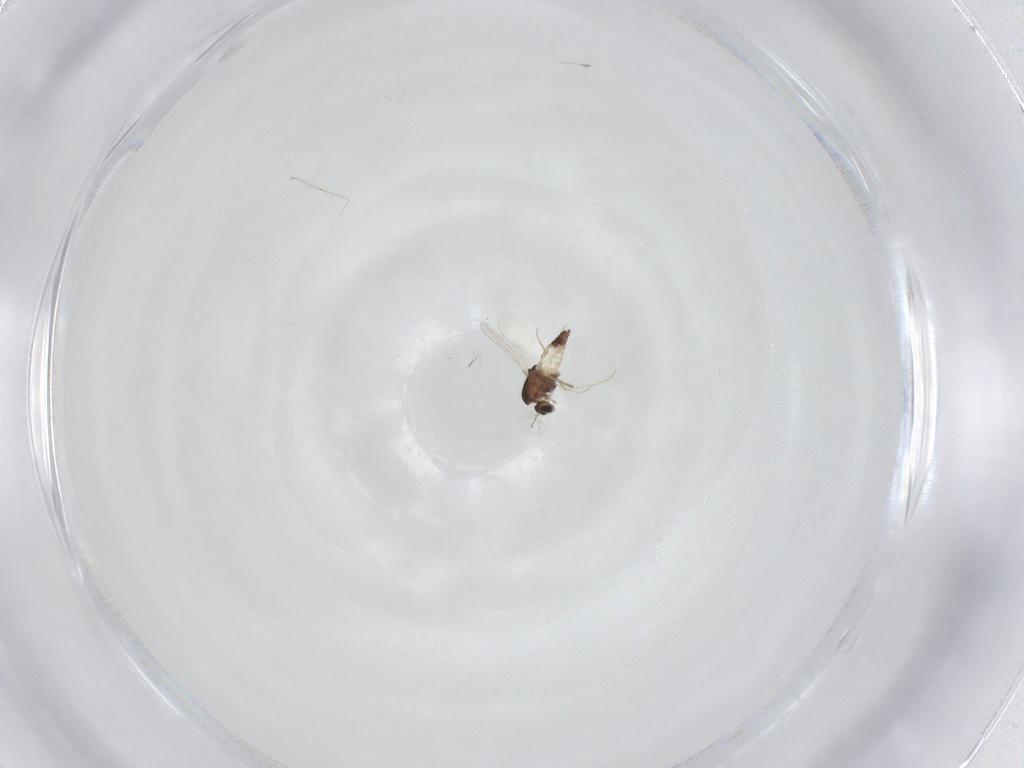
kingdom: Animalia
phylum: Arthropoda
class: Insecta
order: Diptera
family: Chironomidae
